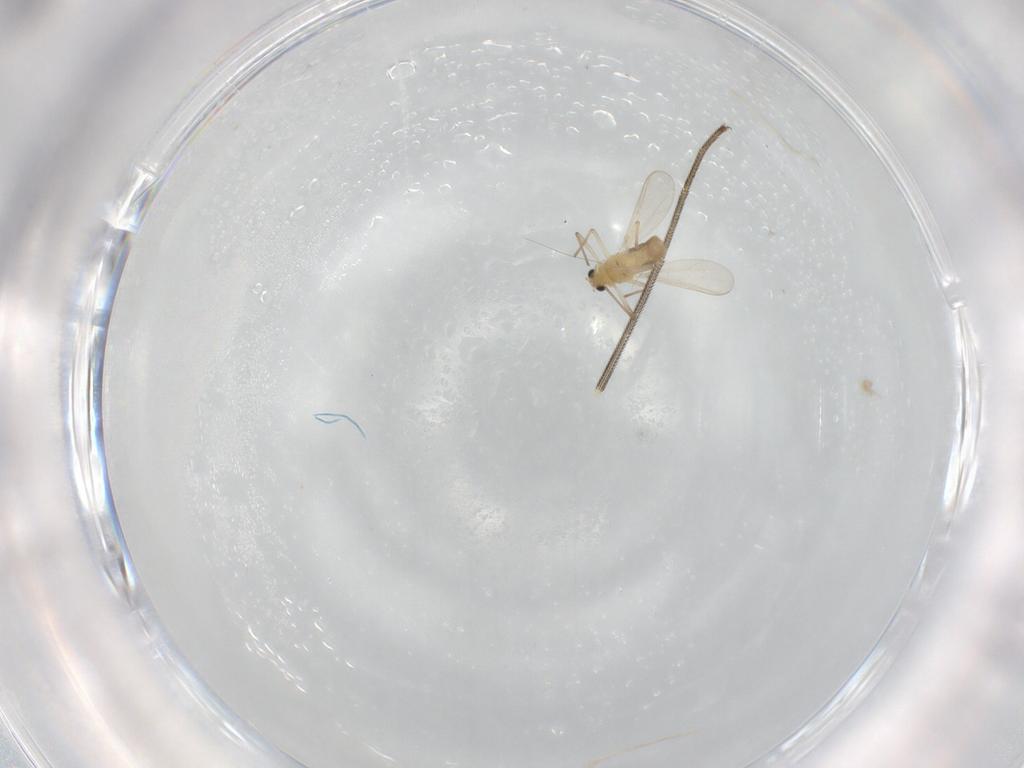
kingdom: Animalia
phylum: Arthropoda
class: Insecta
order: Diptera
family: Chironomidae
